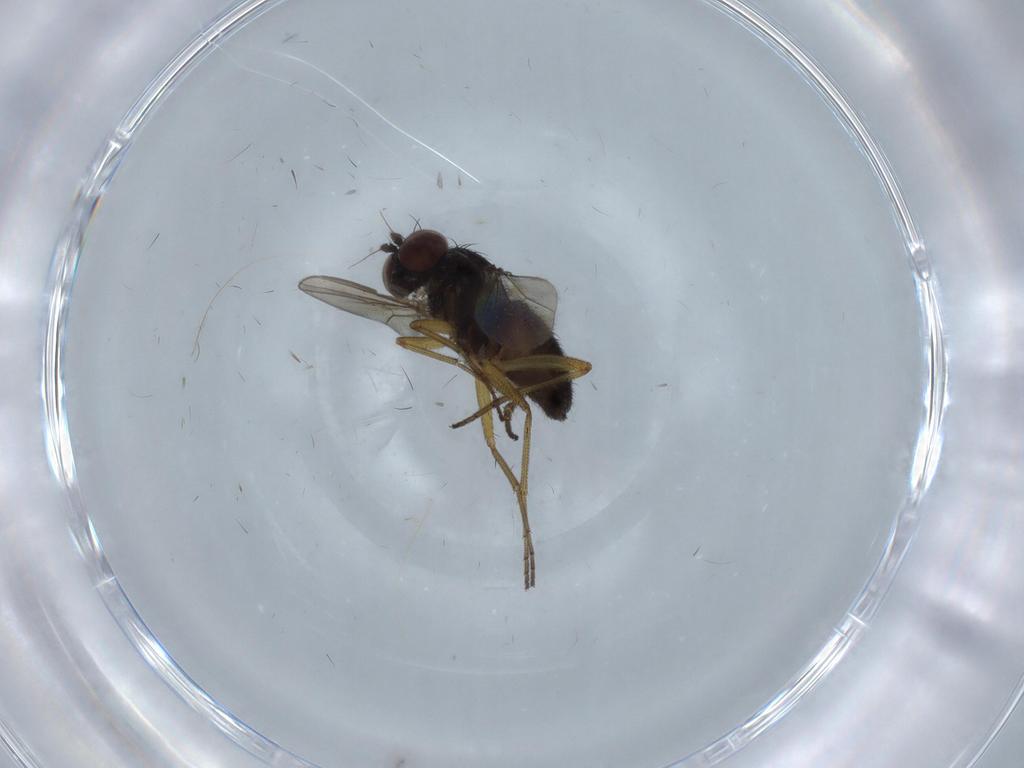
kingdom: Animalia
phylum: Arthropoda
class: Insecta
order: Diptera
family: Dolichopodidae
